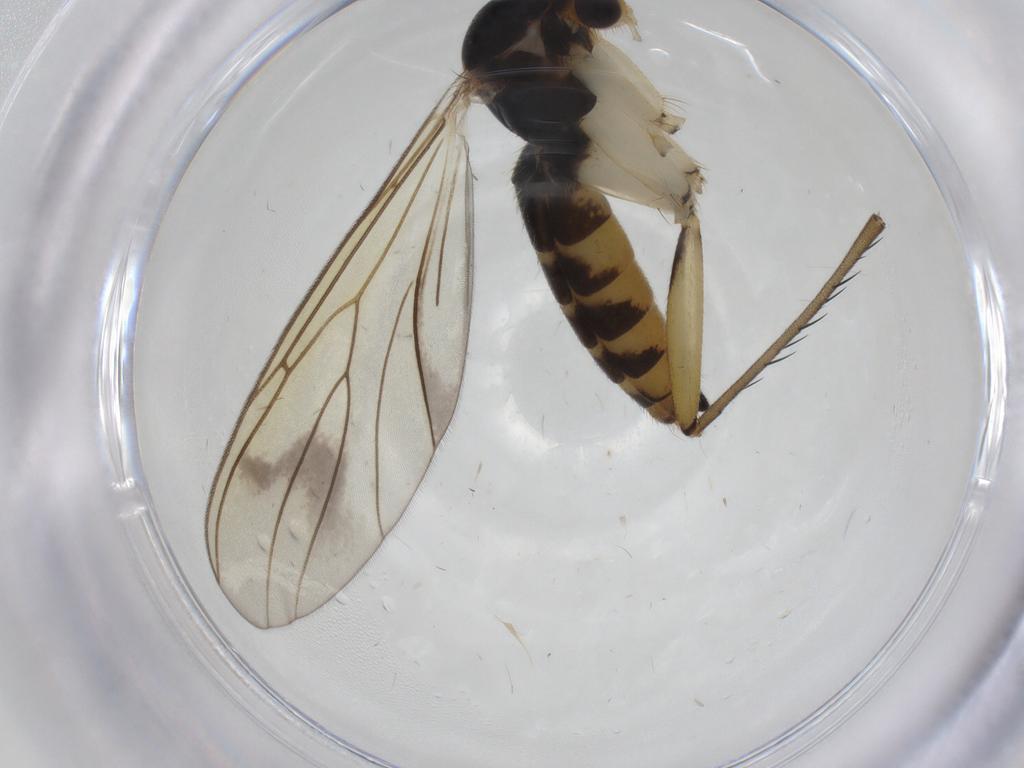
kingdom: Animalia
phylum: Arthropoda
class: Insecta
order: Diptera
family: Mycetophilidae
